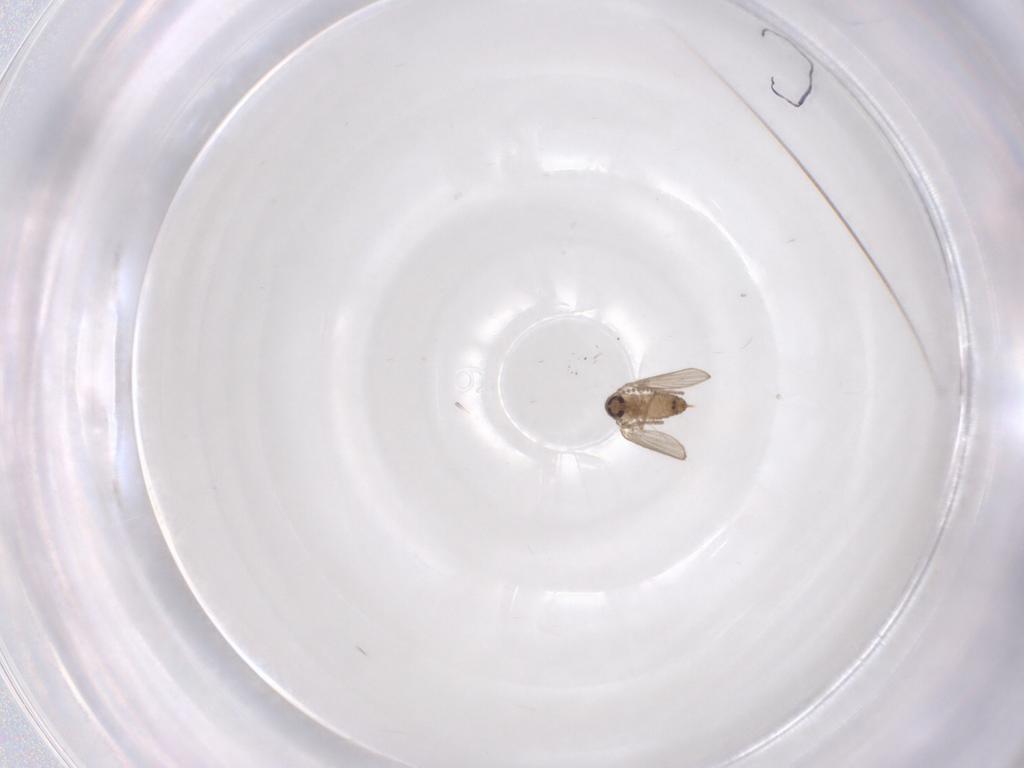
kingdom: Animalia
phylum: Arthropoda
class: Insecta
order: Diptera
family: Psychodidae
